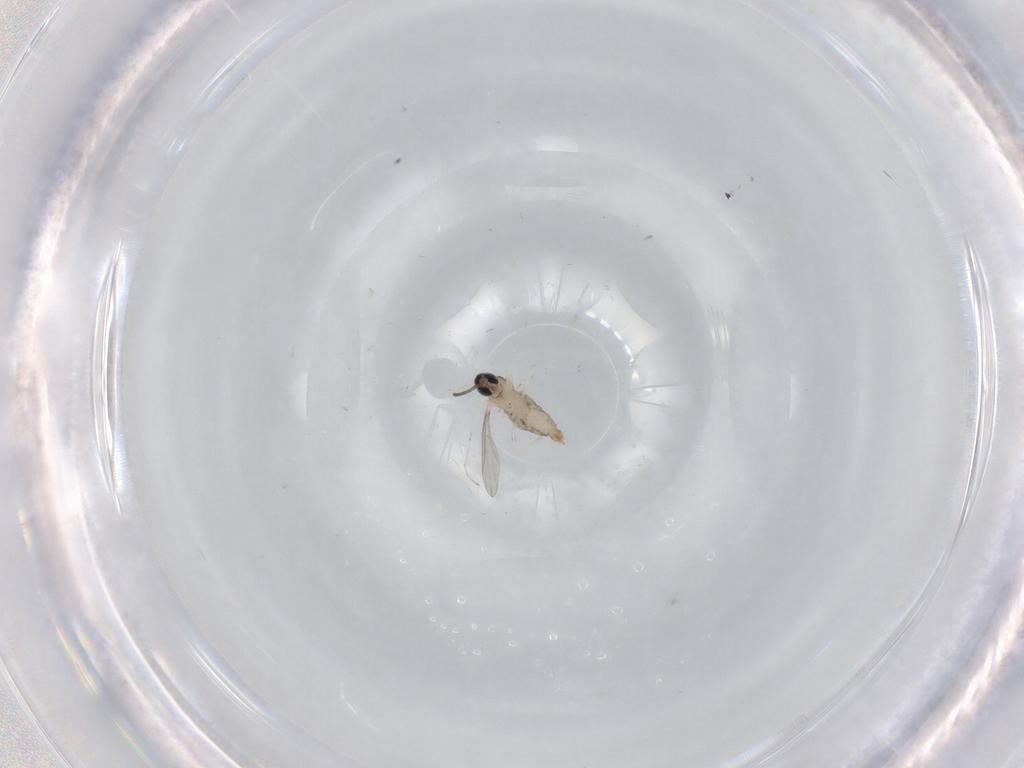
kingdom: Animalia
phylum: Arthropoda
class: Insecta
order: Diptera
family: Cecidomyiidae
